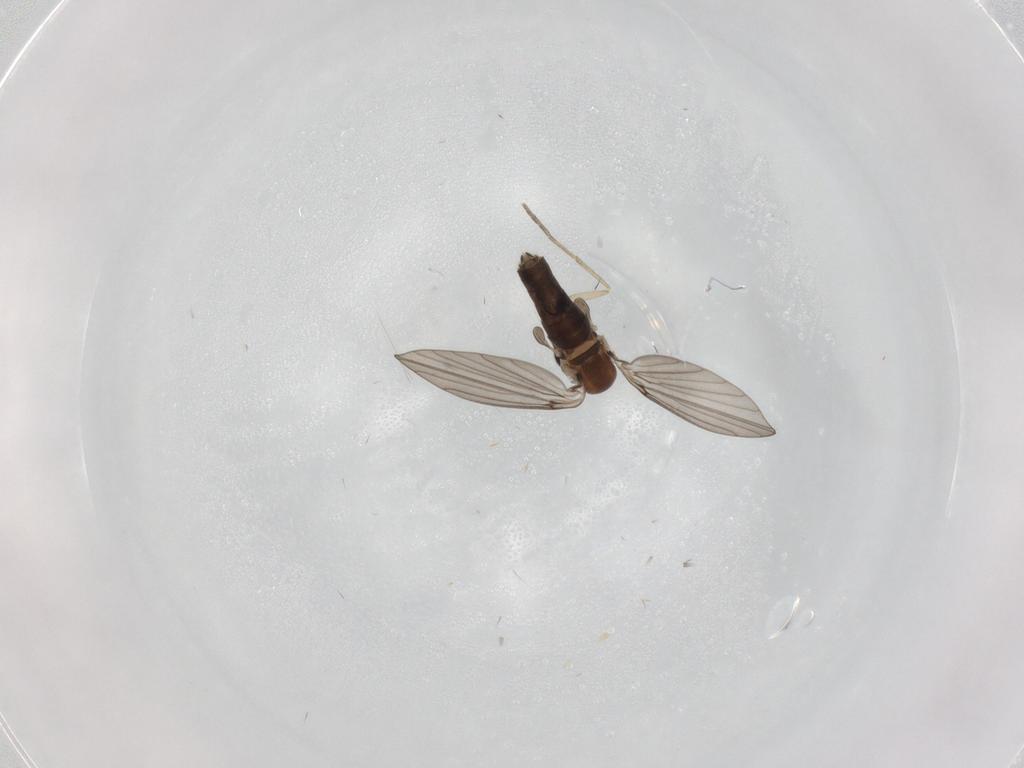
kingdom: Animalia
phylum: Arthropoda
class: Insecta
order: Diptera
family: Psychodidae
